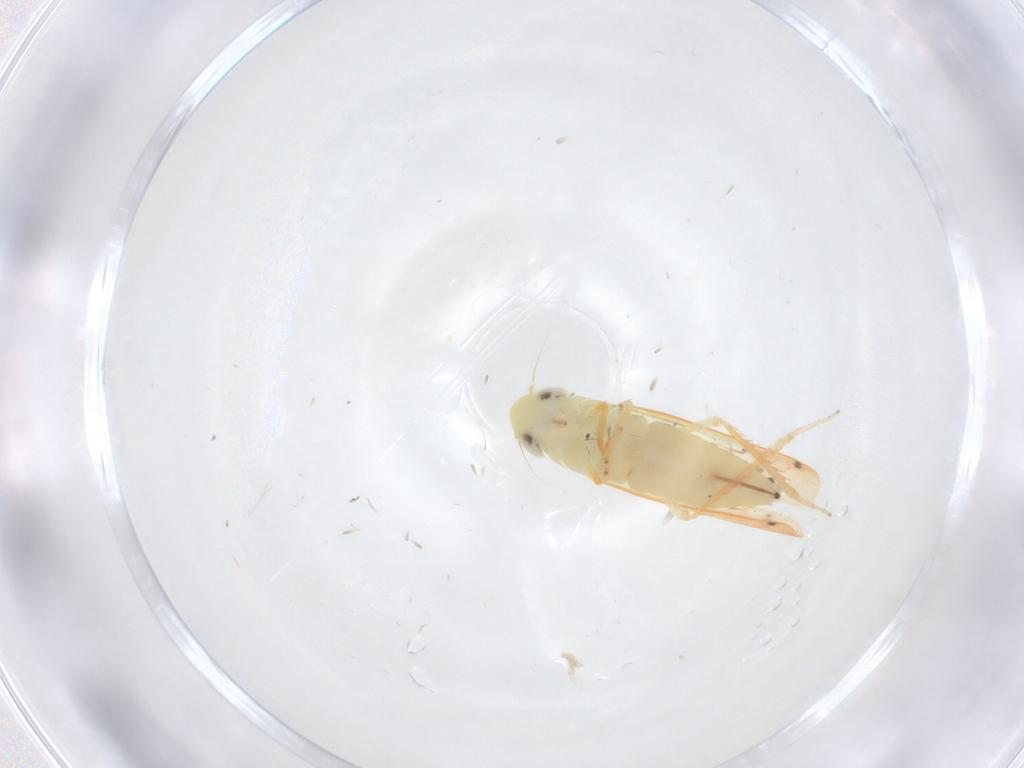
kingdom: Animalia
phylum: Arthropoda
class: Insecta
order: Hemiptera
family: Cicadellidae
